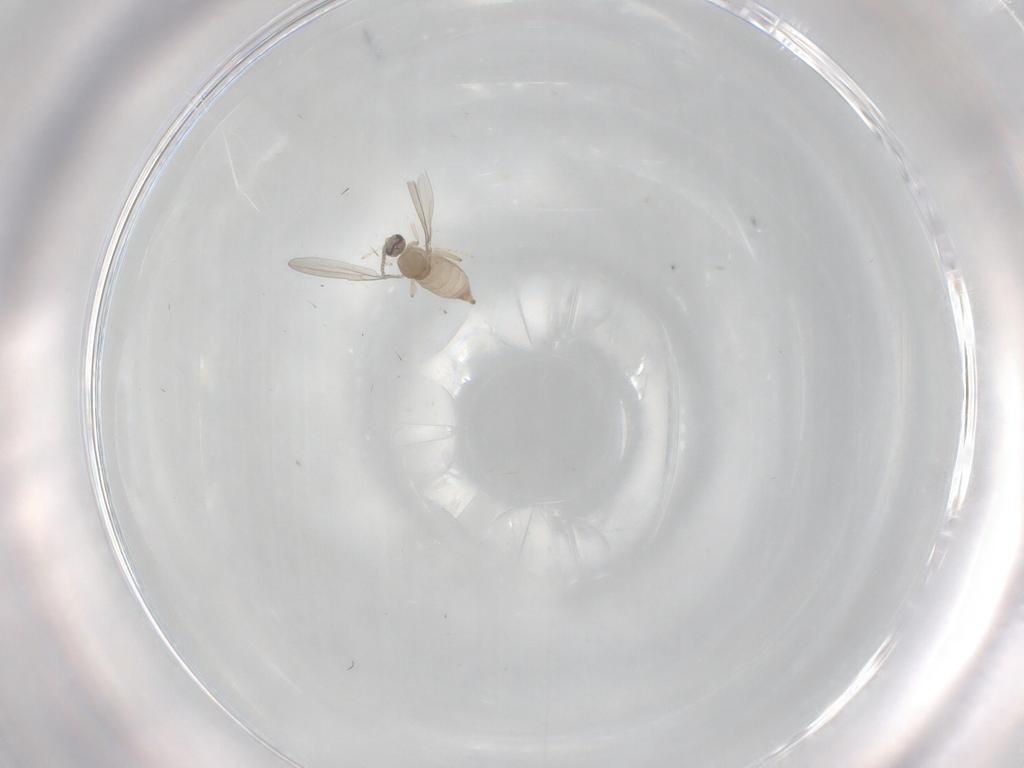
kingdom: Animalia
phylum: Arthropoda
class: Insecta
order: Diptera
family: Cecidomyiidae
